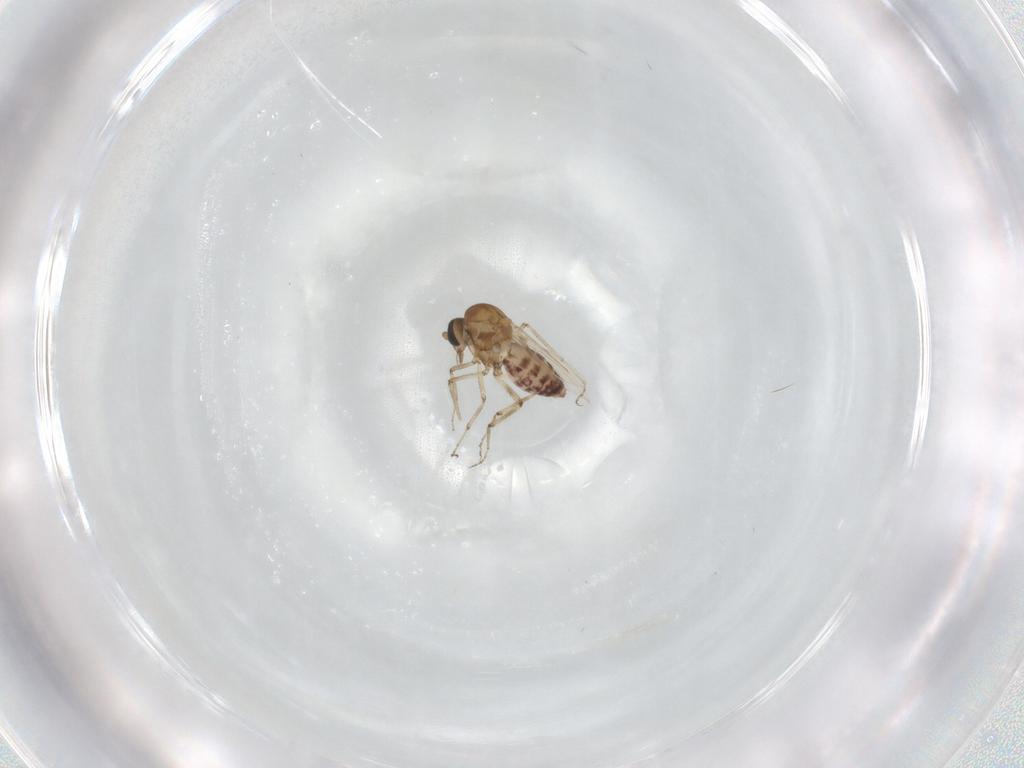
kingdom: Animalia
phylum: Arthropoda
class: Insecta
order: Diptera
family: Ceratopogonidae
